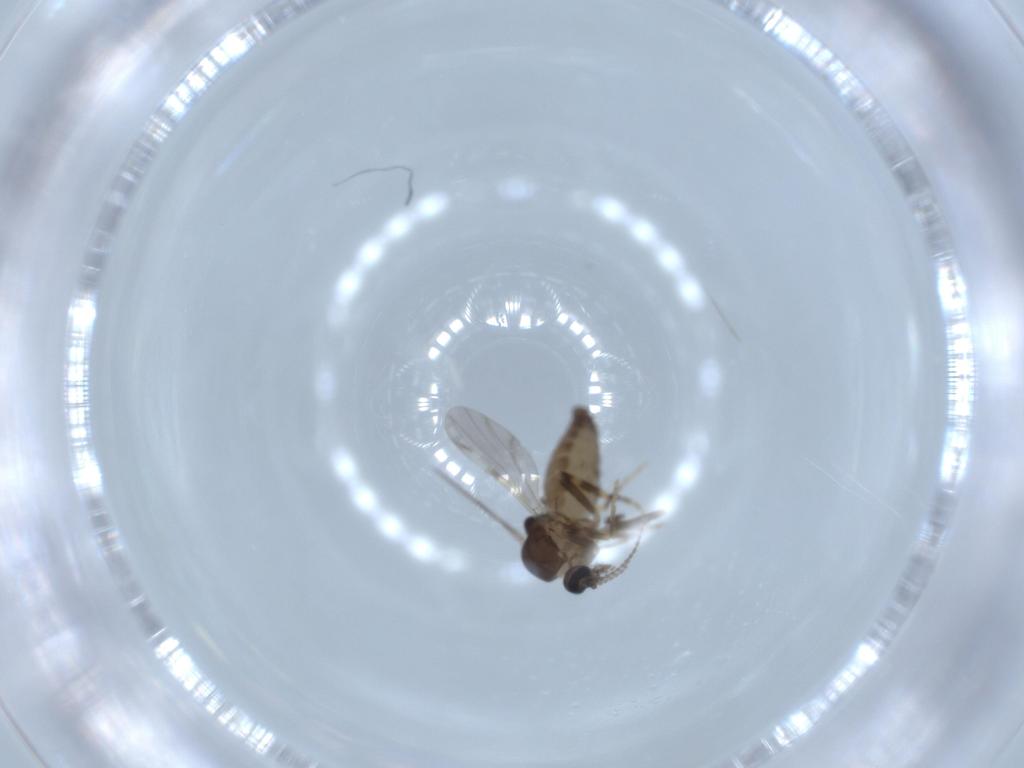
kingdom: Animalia
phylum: Arthropoda
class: Insecta
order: Diptera
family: Ceratopogonidae
